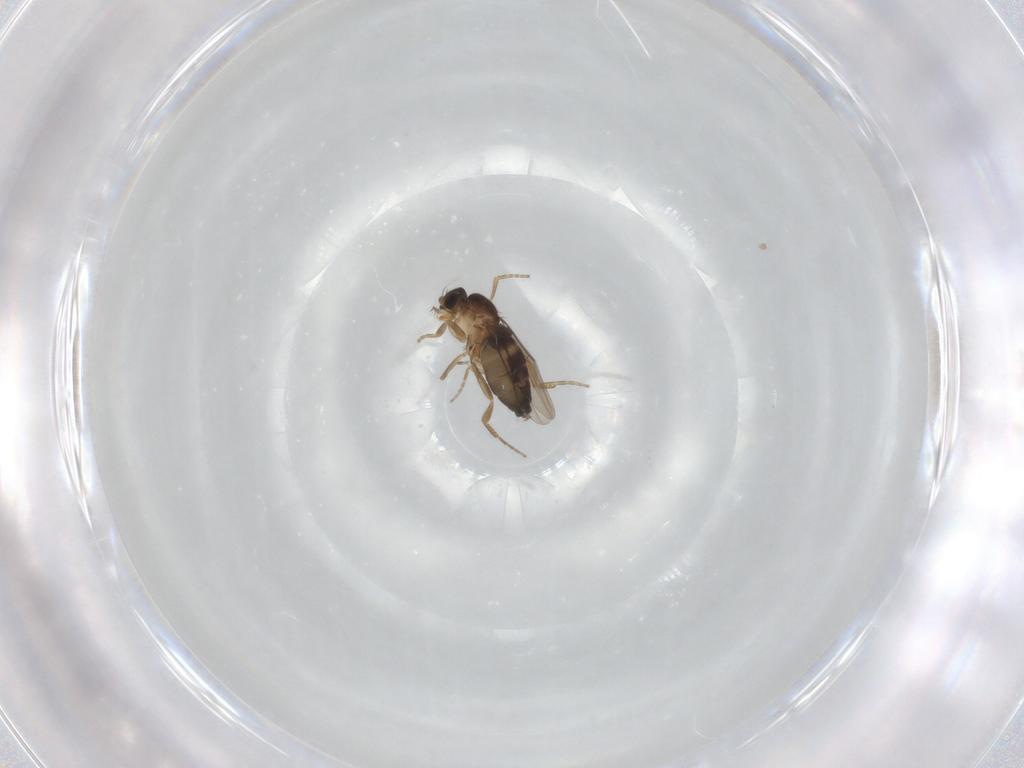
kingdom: Animalia
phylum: Arthropoda
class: Insecta
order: Diptera
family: Phoridae
